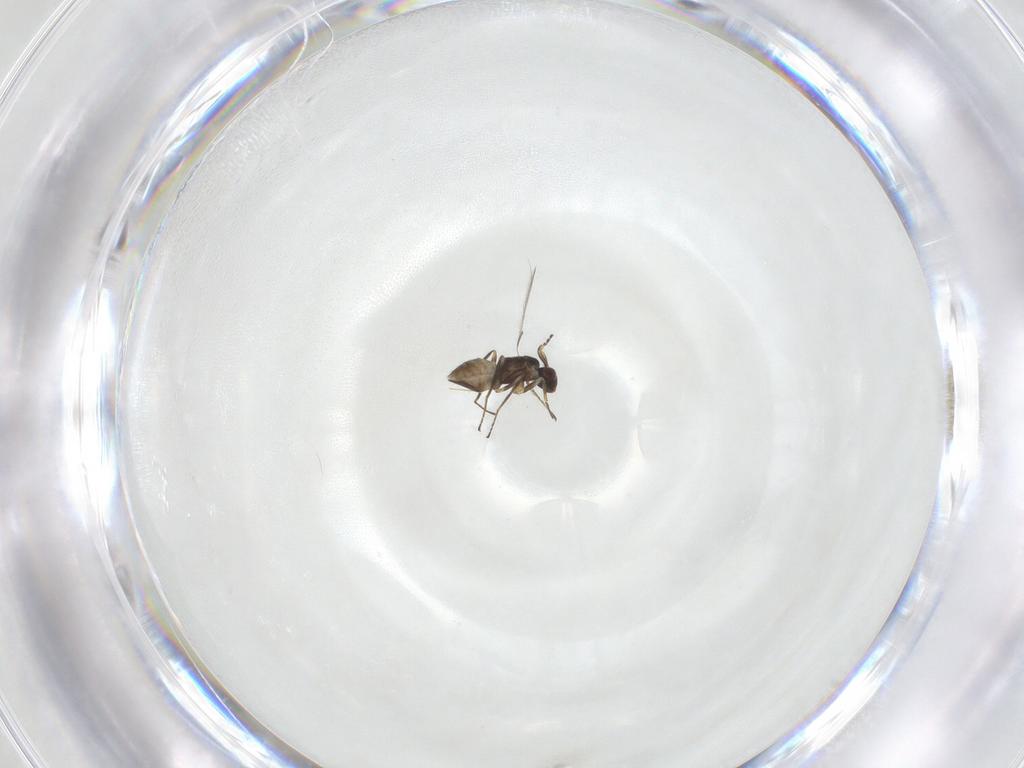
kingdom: Animalia
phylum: Arthropoda
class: Insecta
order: Hymenoptera
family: Mymaridae
